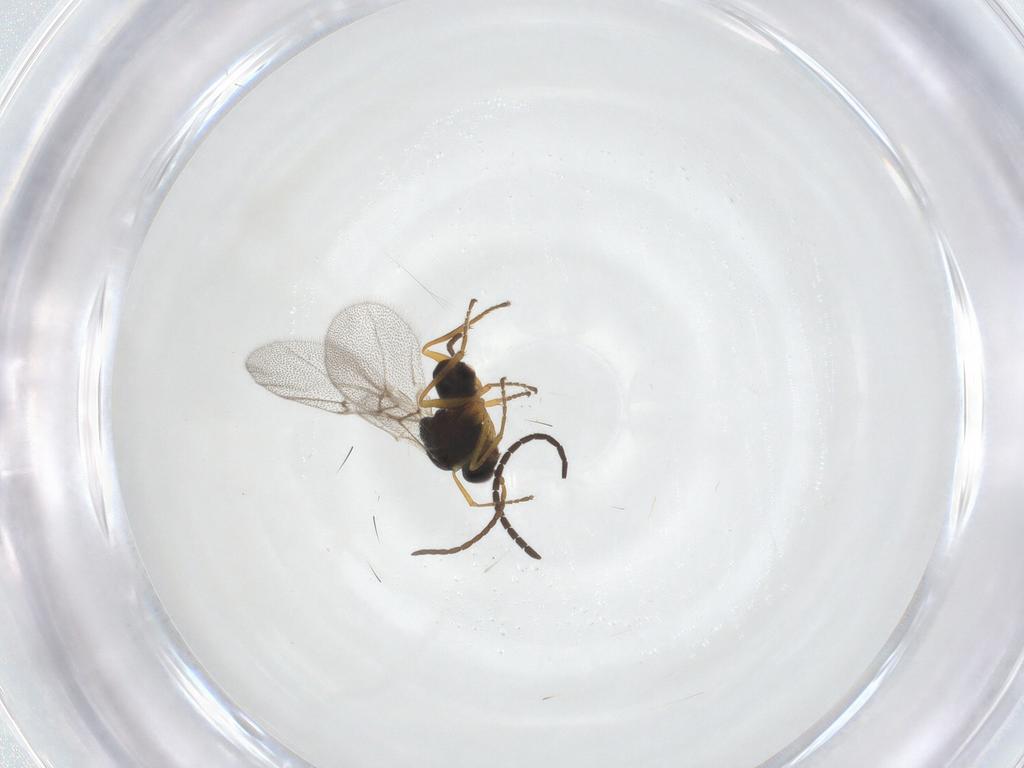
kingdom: Animalia
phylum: Arthropoda
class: Insecta
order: Hymenoptera
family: Cynipidae
